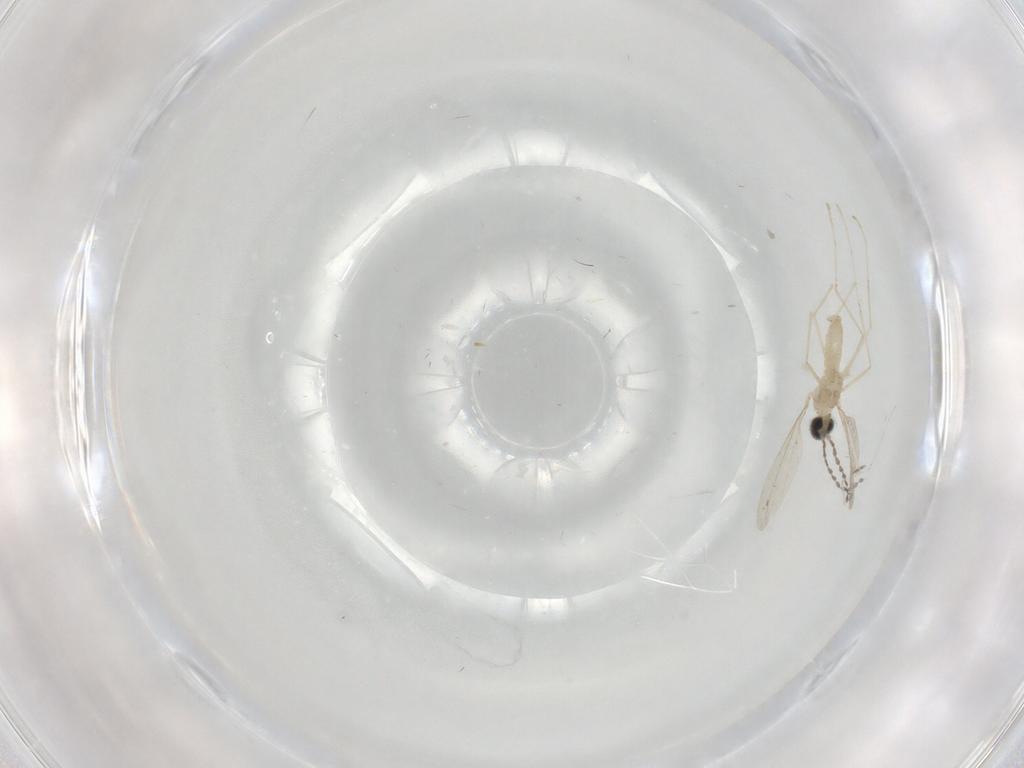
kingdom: Animalia
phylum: Arthropoda
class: Insecta
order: Diptera
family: Cecidomyiidae
